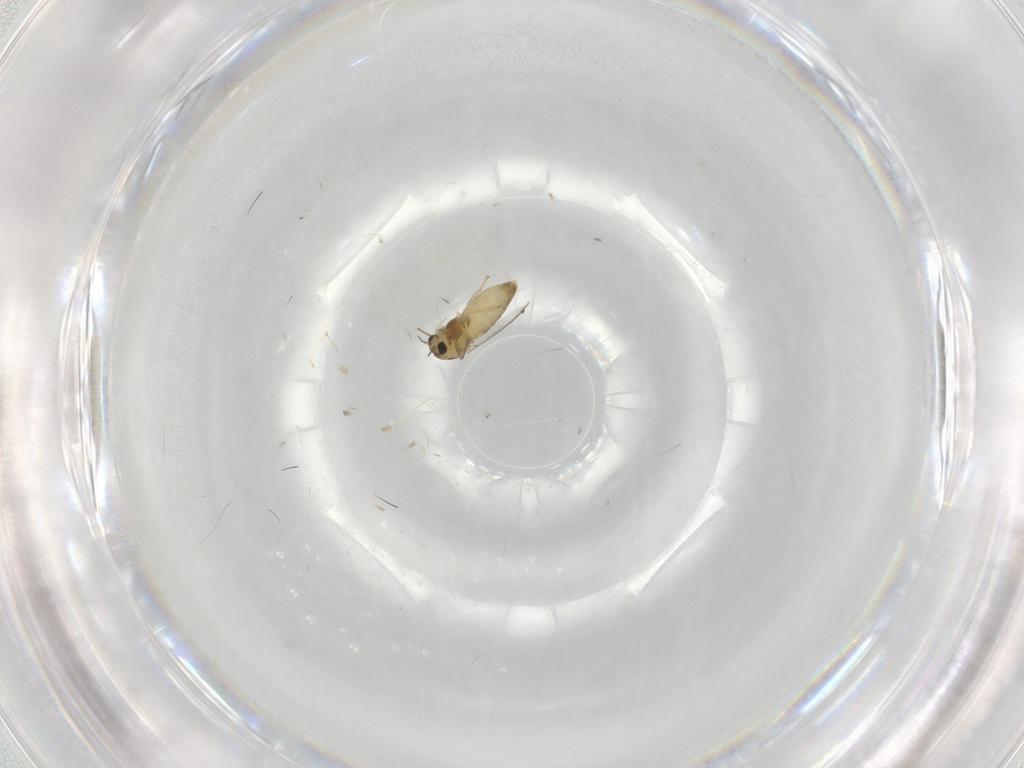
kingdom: Animalia
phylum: Arthropoda
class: Insecta
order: Diptera
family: Chironomidae
